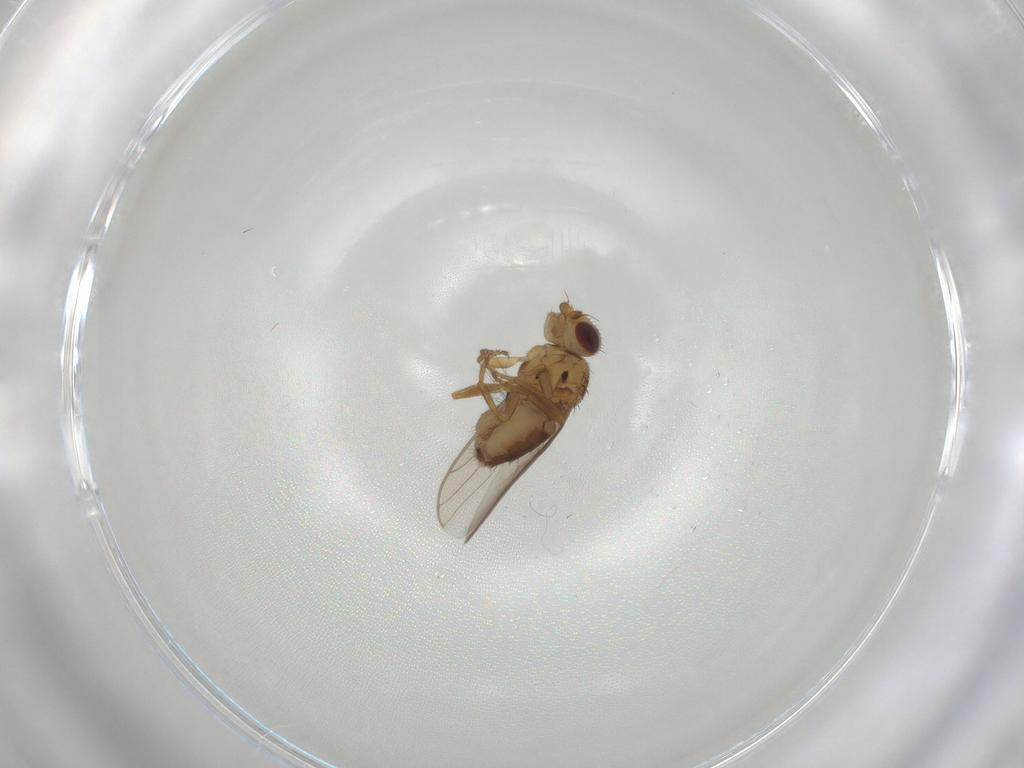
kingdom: Animalia
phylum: Arthropoda
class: Insecta
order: Diptera
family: Chloropidae
